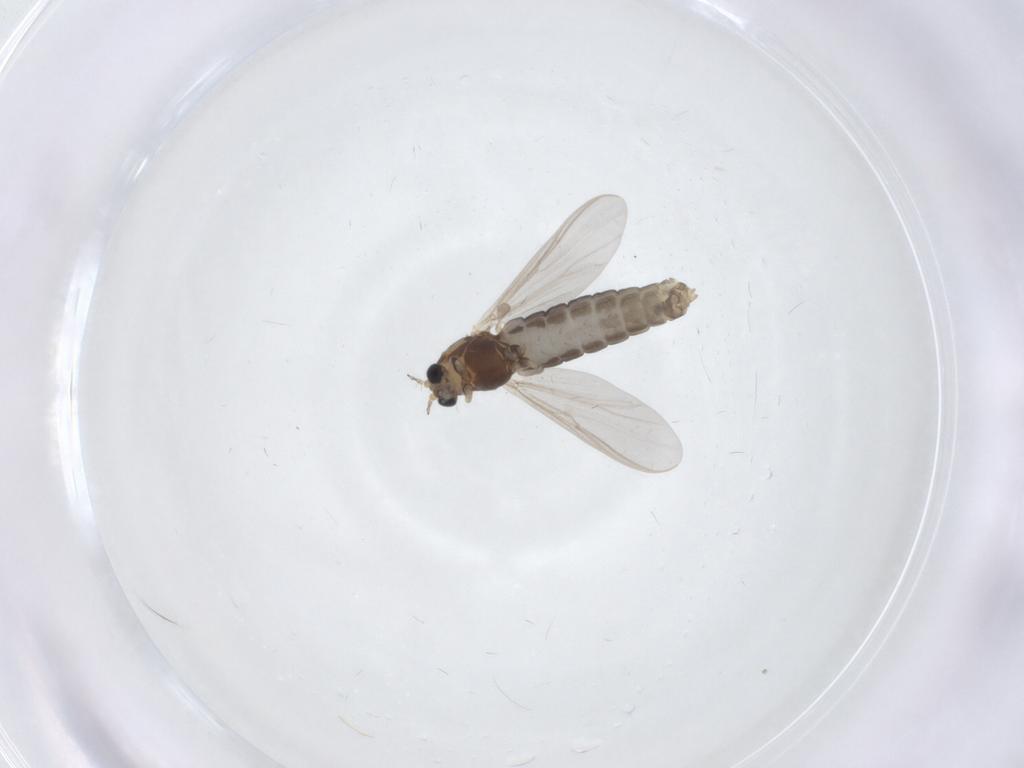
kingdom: Animalia
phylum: Arthropoda
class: Insecta
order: Diptera
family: Chironomidae
